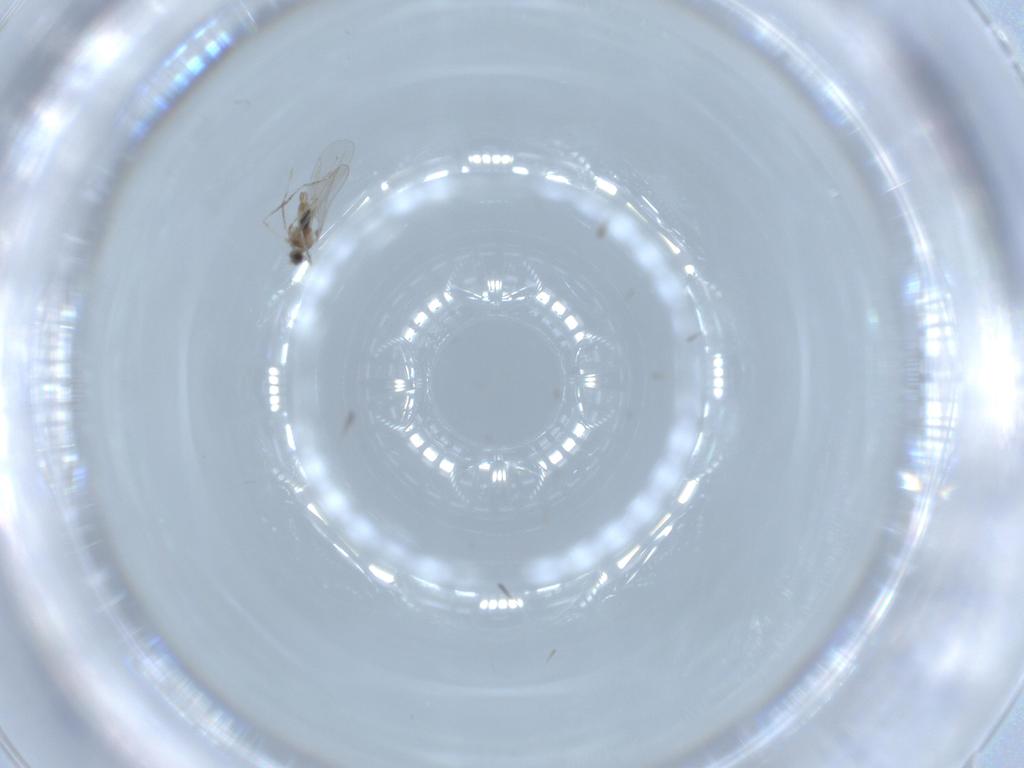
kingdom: Animalia
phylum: Arthropoda
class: Insecta
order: Diptera
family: Cecidomyiidae
